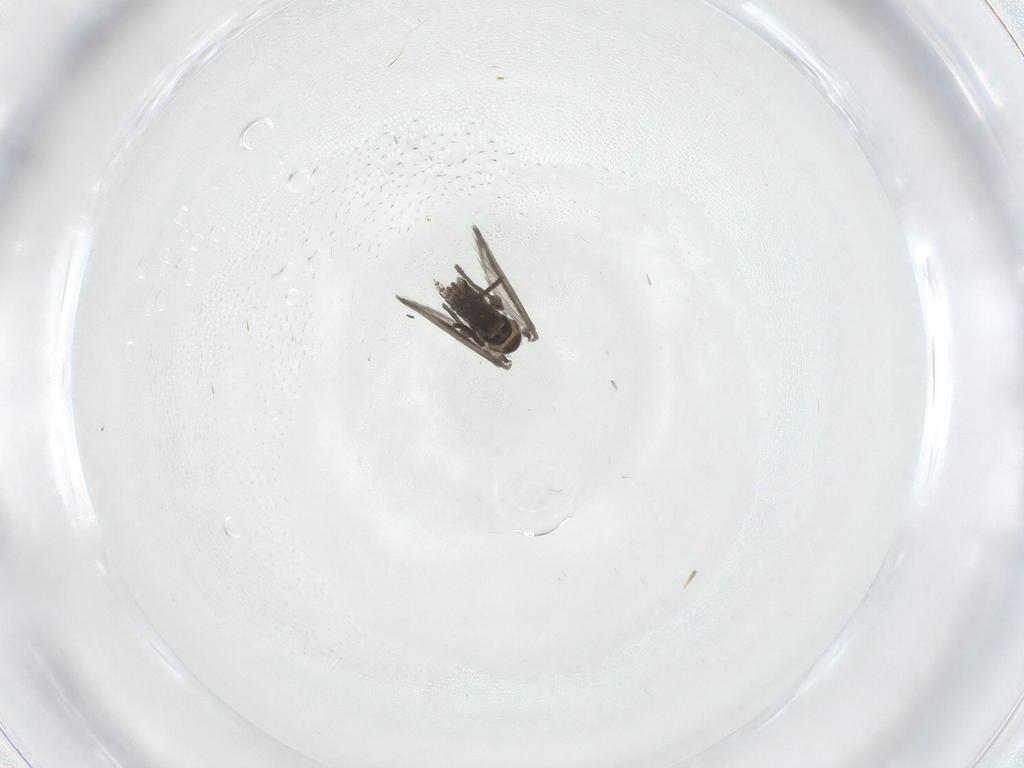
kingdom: Animalia
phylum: Arthropoda
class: Insecta
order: Diptera
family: Psychodidae
